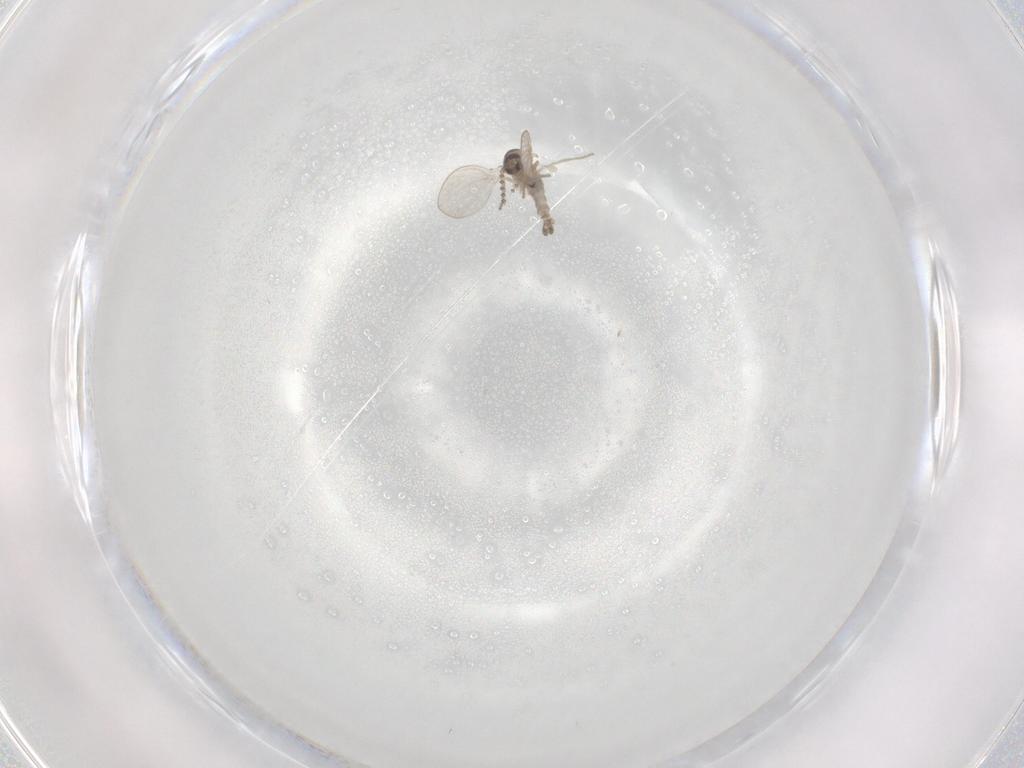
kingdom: Animalia
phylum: Arthropoda
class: Insecta
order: Diptera
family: Psychodidae
